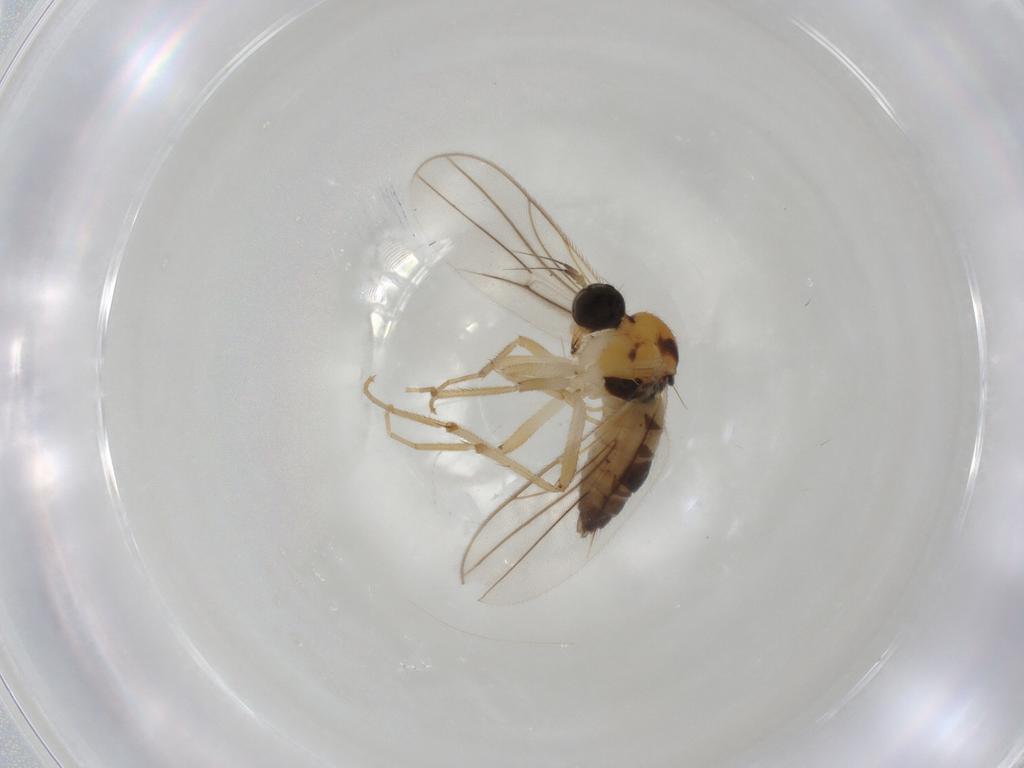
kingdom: Animalia
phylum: Arthropoda
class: Insecta
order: Diptera
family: Hybotidae
